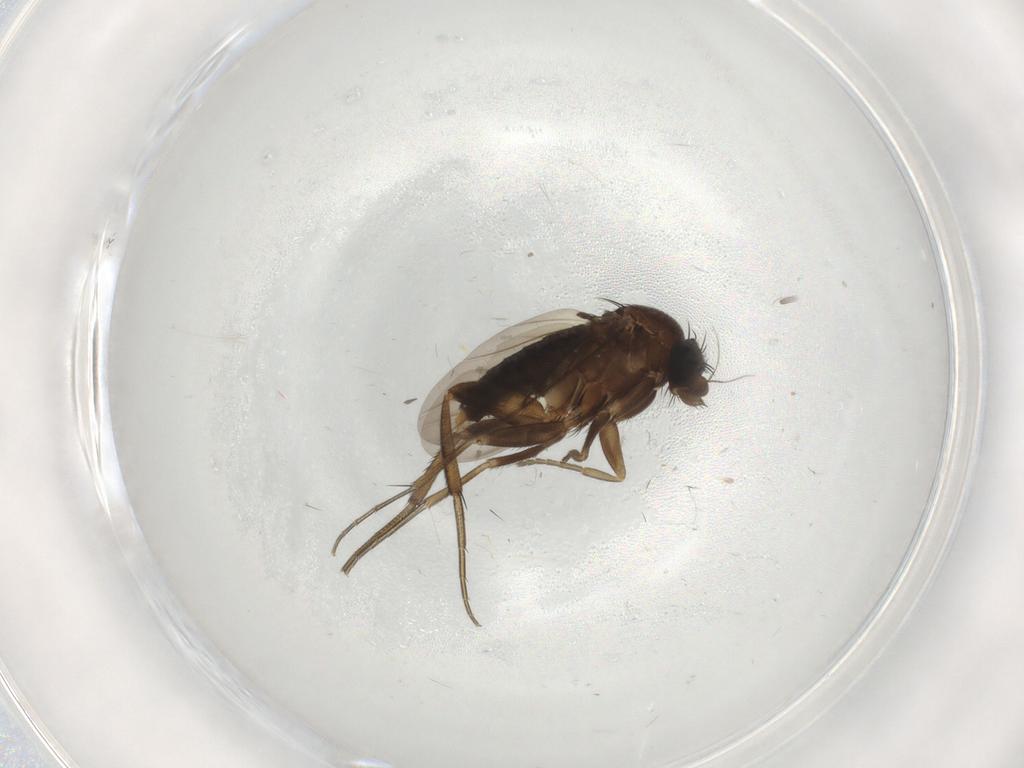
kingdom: Animalia
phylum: Arthropoda
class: Insecta
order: Diptera
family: Phoridae
